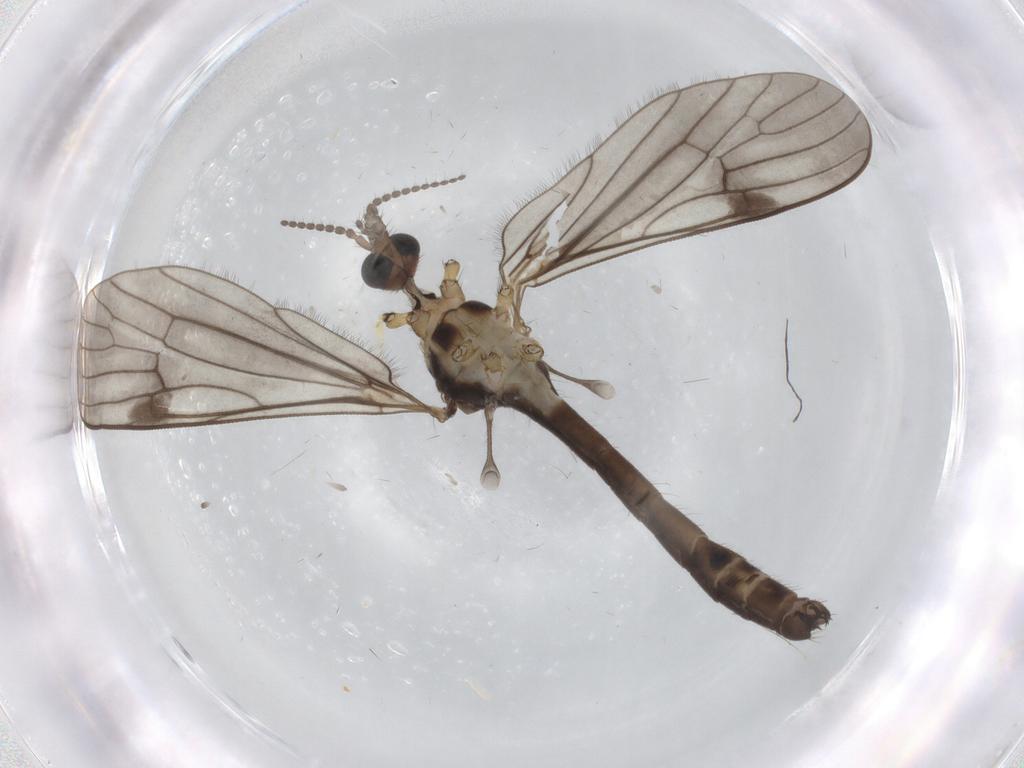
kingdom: Animalia
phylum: Arthropoda
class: Insecta
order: Diptera
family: Limoniidae
